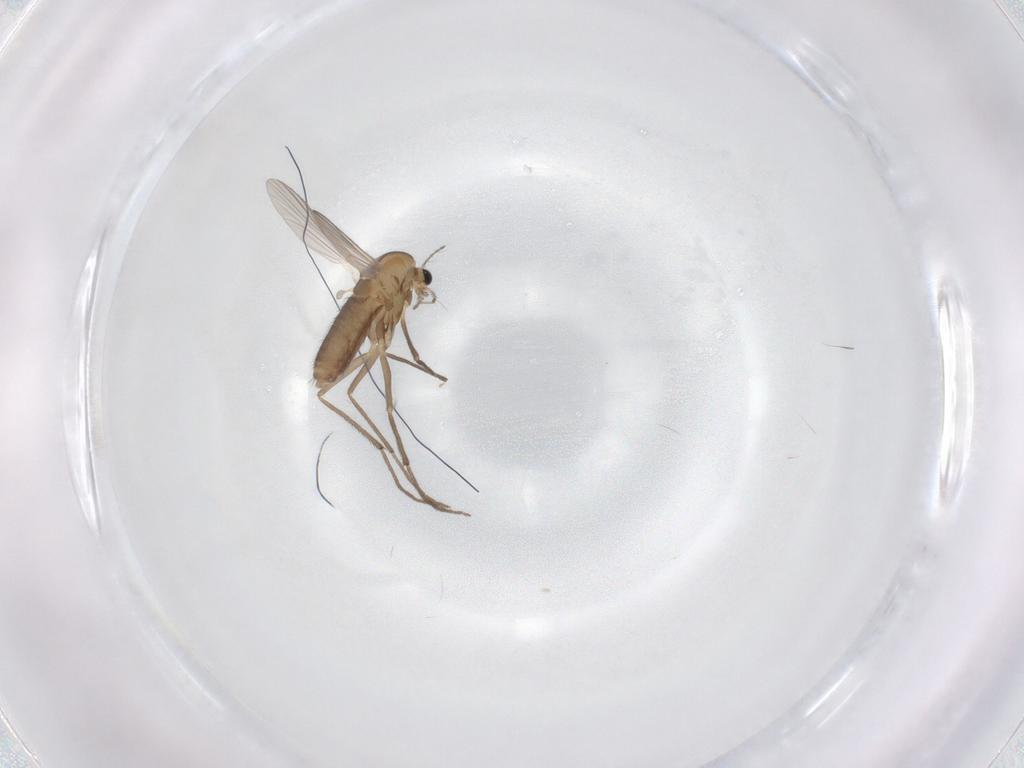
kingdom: Animalia
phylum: Arthropoda
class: Insecta
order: Diptera
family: Chironomidae
